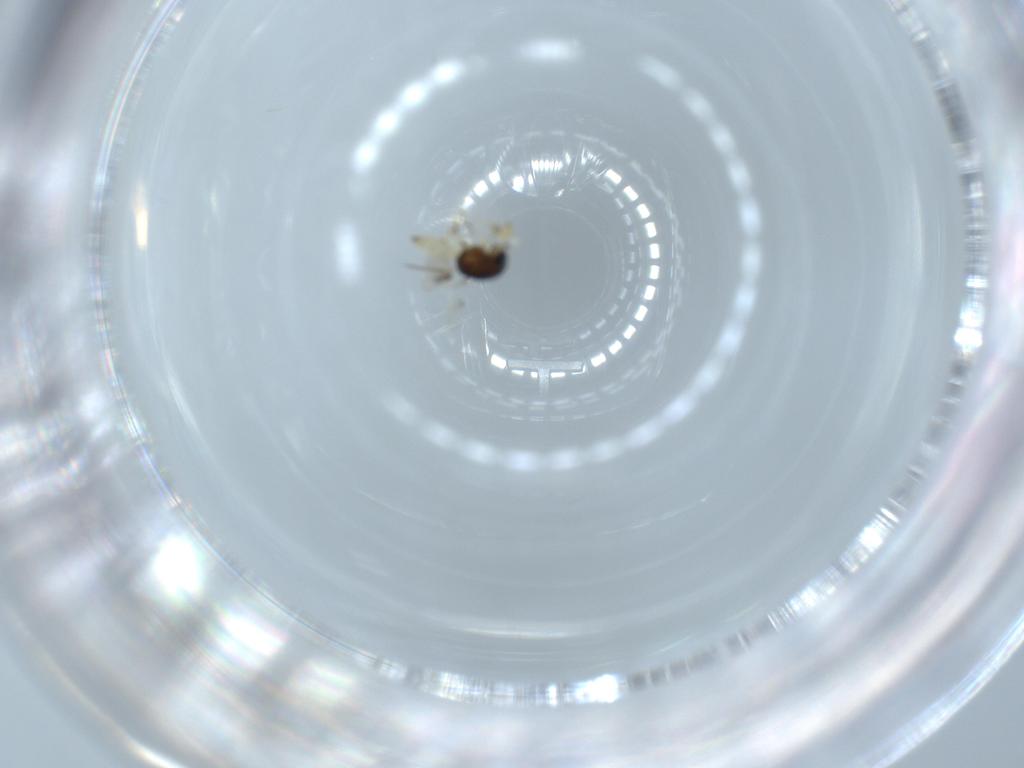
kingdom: Animalia
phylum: Arthropoda
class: Insecta
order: Hymenoptera
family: Scelionidae
